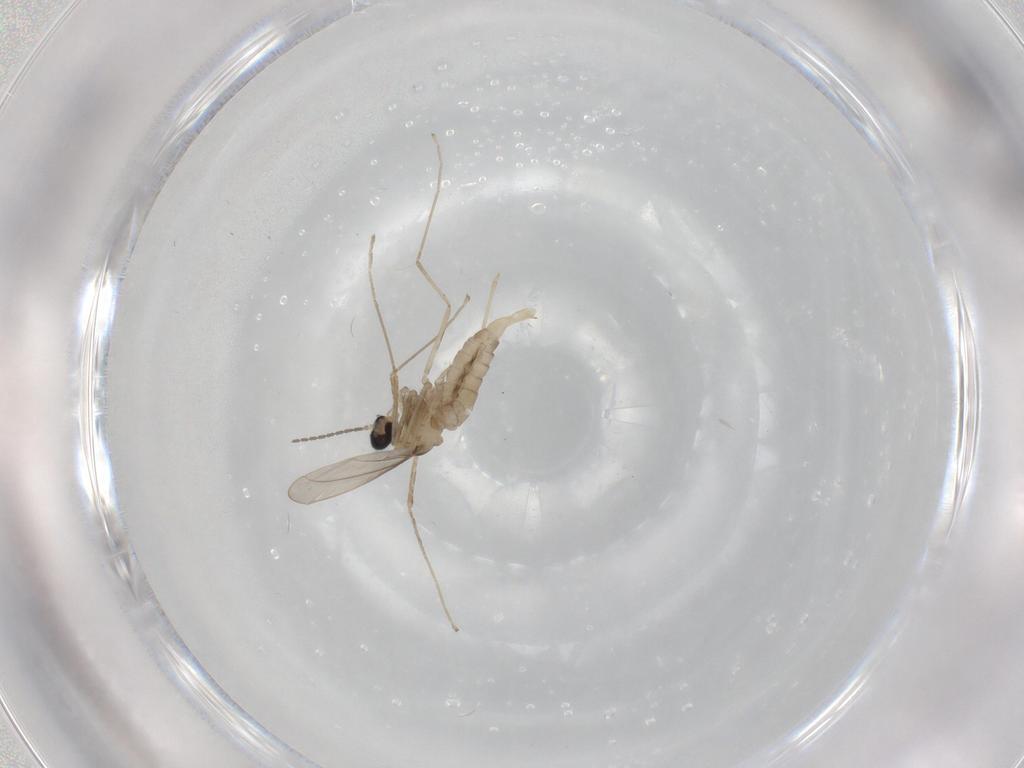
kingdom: Animalia
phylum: Arthropoda
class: Insecta
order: Diptera
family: Cecidomyiidae
